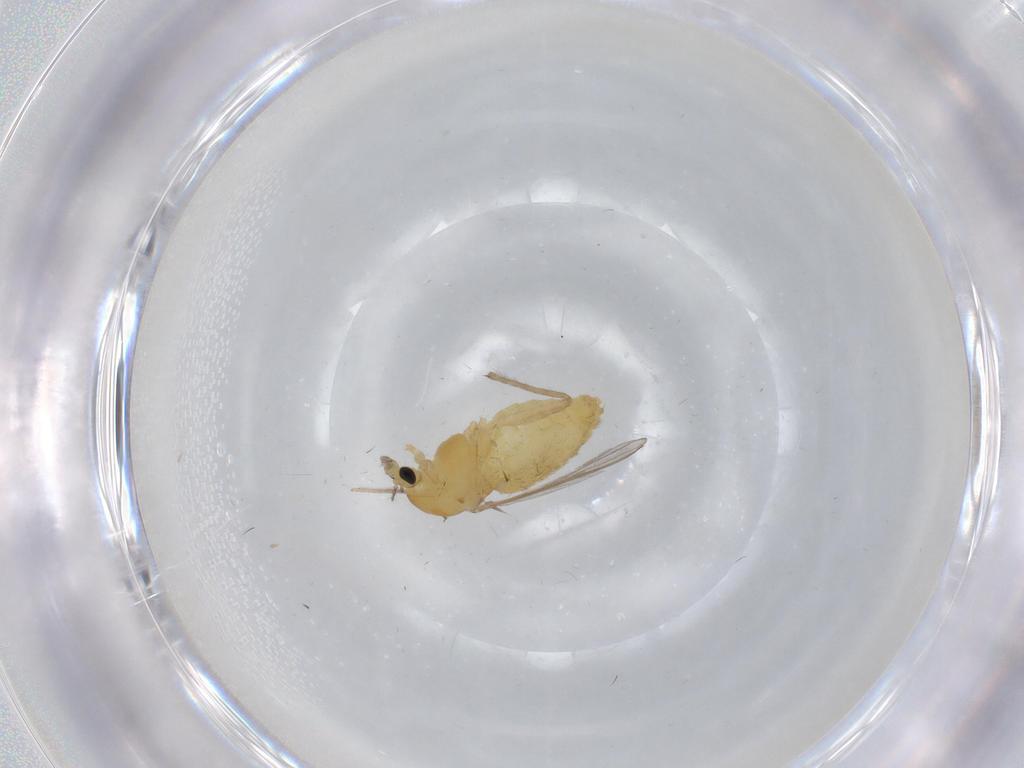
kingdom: Animalia
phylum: Arthropoda
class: Insecta
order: Diptera
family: Chironomidae
